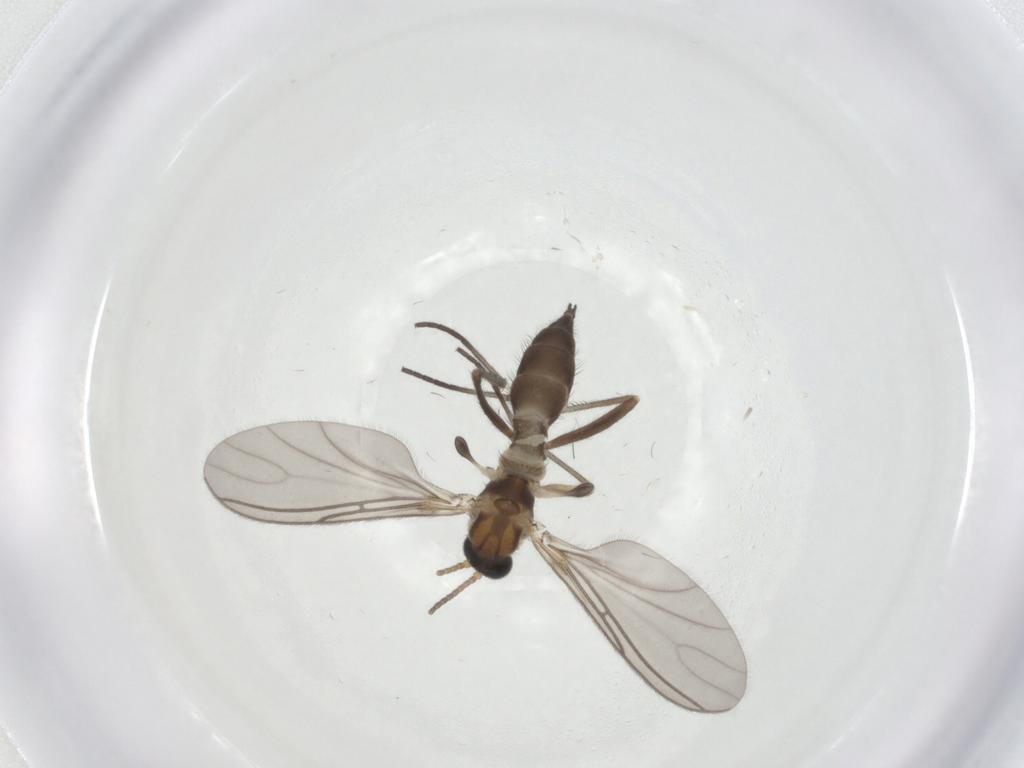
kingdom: Animalia
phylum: Arthropoda
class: Insecta
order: Diptera
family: Sciaridae
